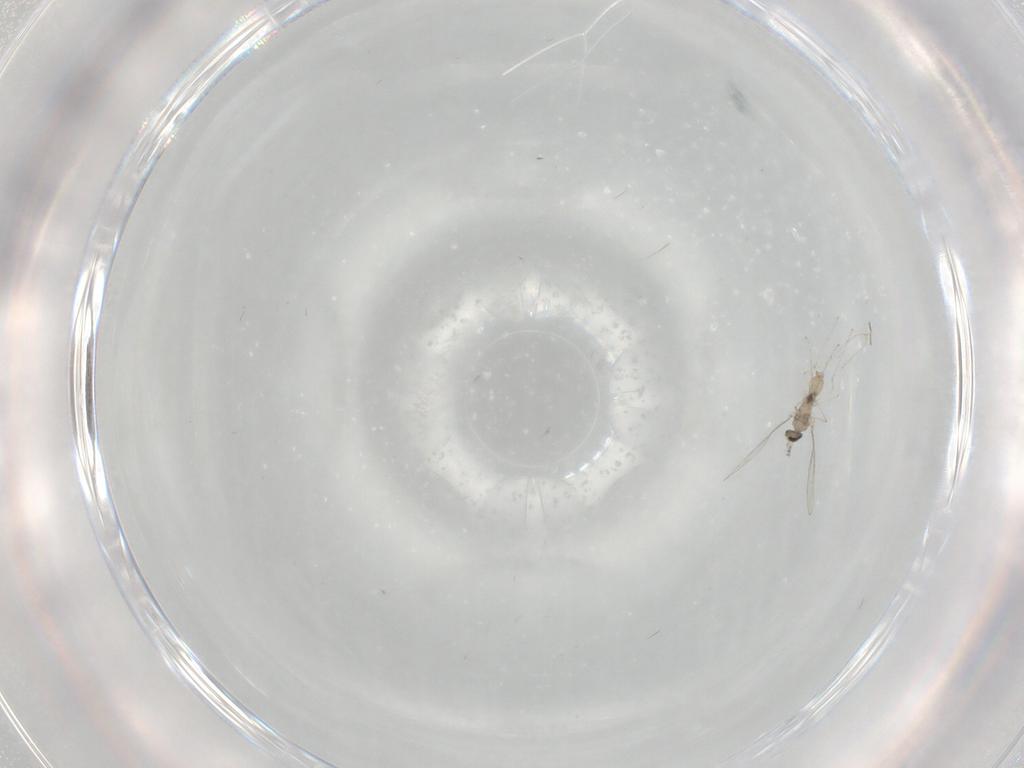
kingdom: Animalia
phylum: Arthropoda
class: Insecta
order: Diptera
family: Cecidomyiidae
